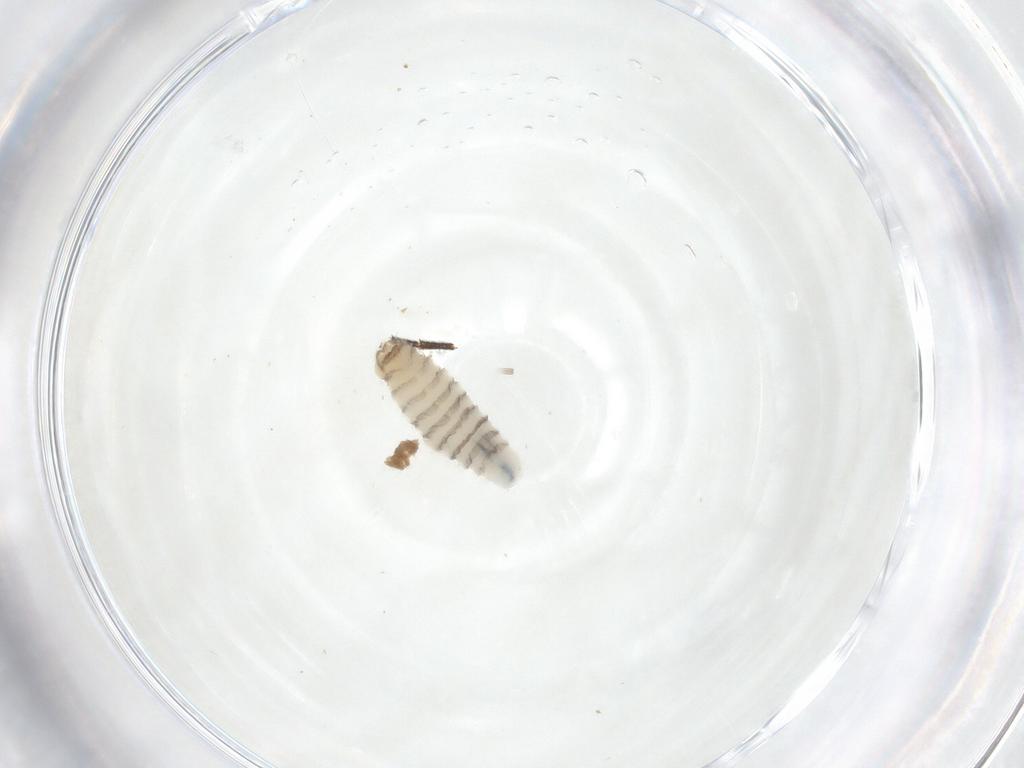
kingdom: Animalia
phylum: Arthropoda
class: Insecta
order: Diptera
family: Sarcophagidae
